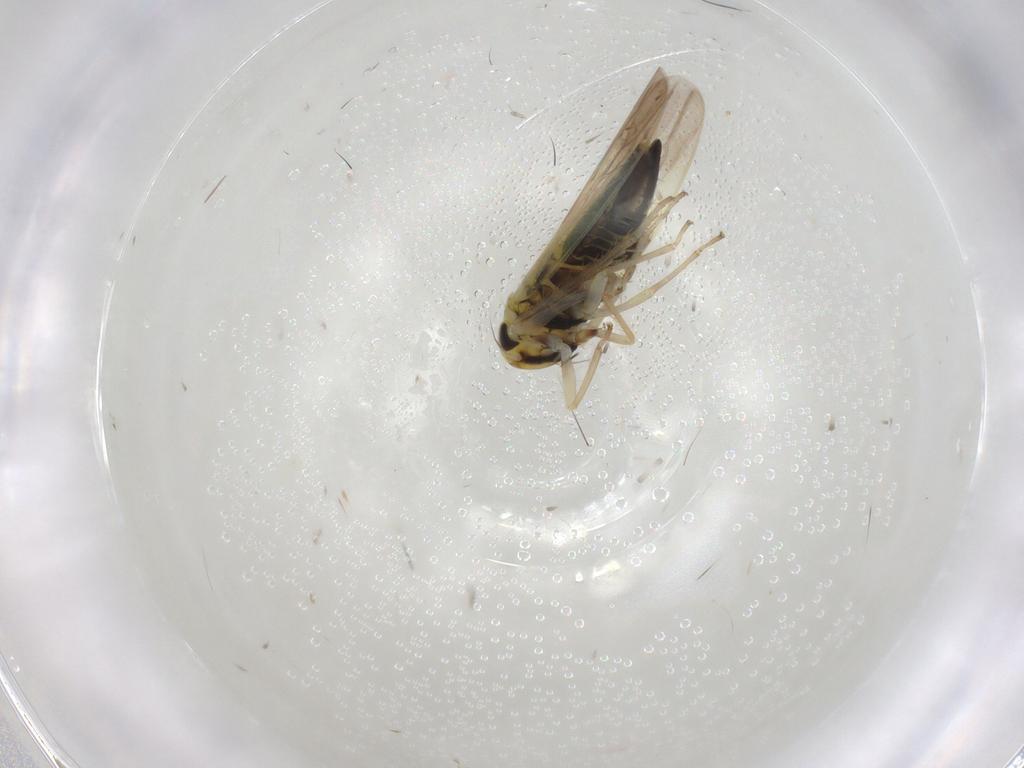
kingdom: Animalia
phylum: Arthropoda
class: Insecta
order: Hemiptera
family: Cicadellidae
